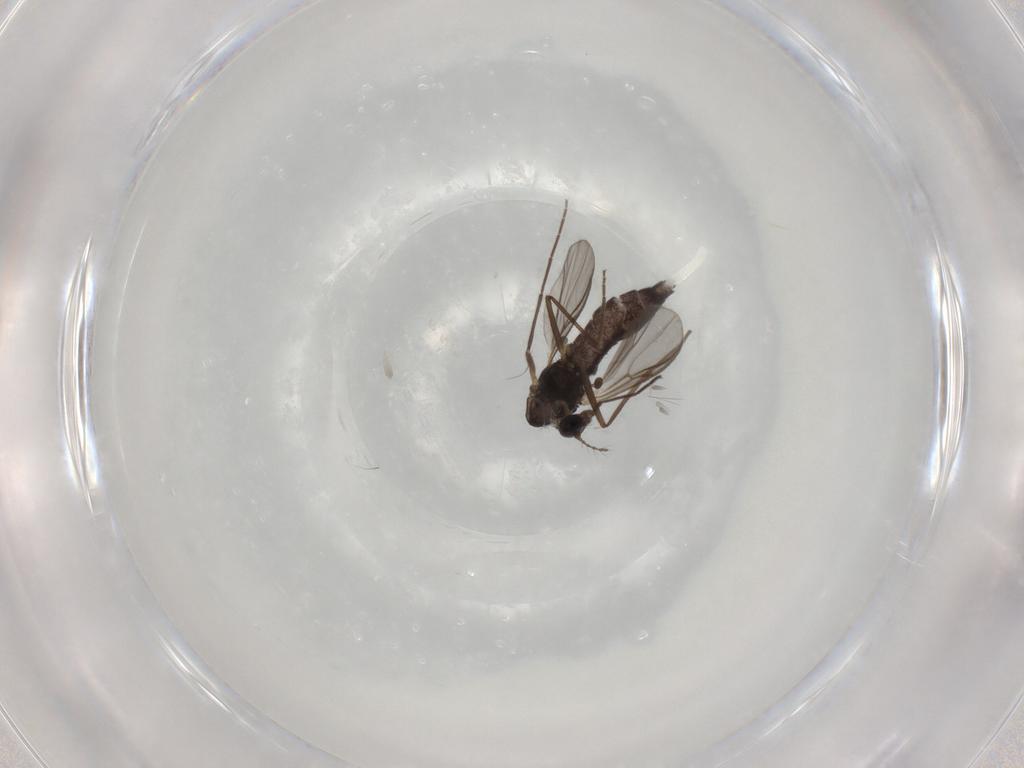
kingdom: Animalia
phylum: Arthropoda
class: Insecta
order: Diptera
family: Chironomidae
